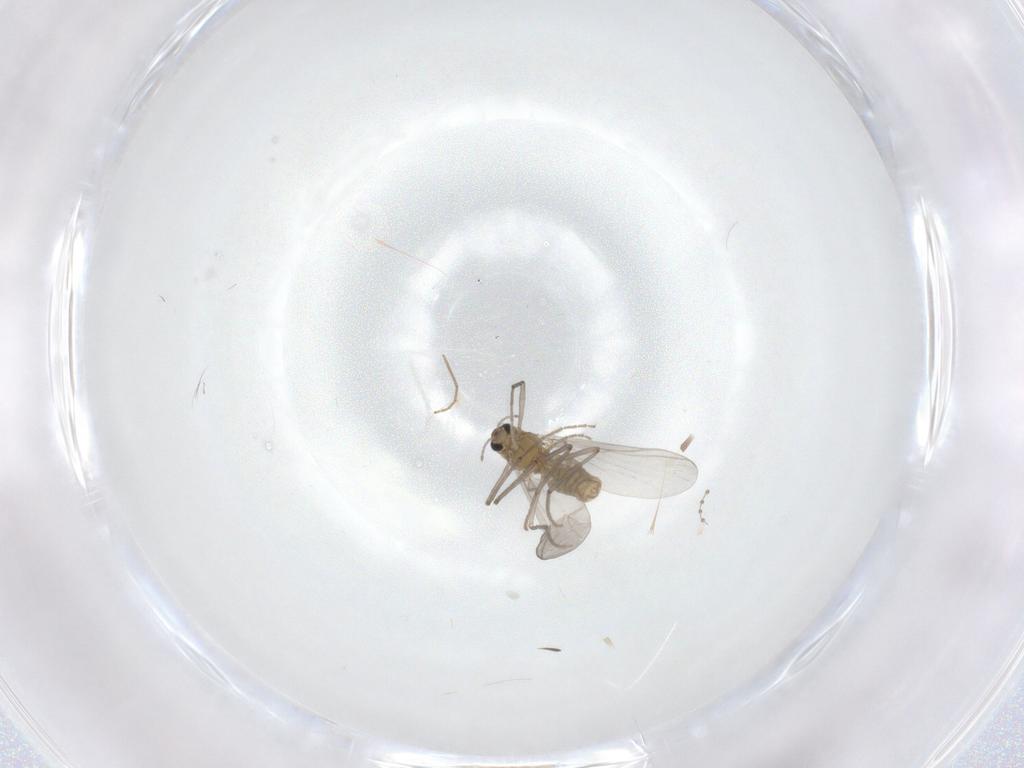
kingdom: Animalia
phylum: Arthropoda
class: Insecta
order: Diptera
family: Chironomidae
